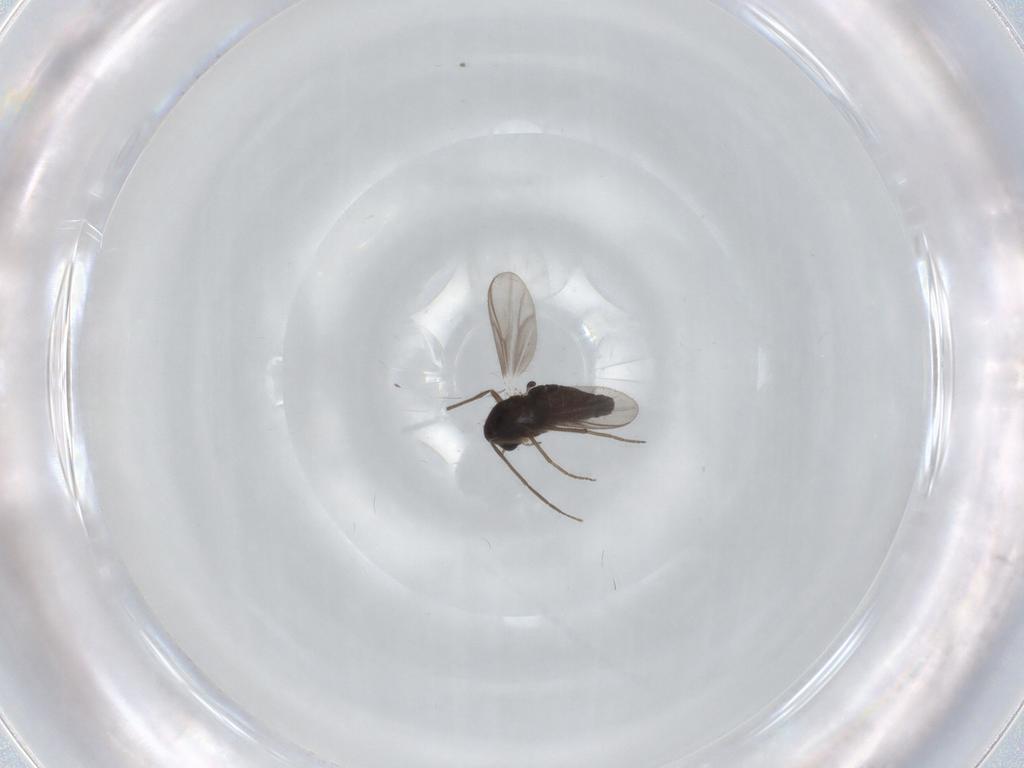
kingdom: Animalia
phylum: Arthropoda
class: Insecta
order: Diptera
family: Chironomidae
